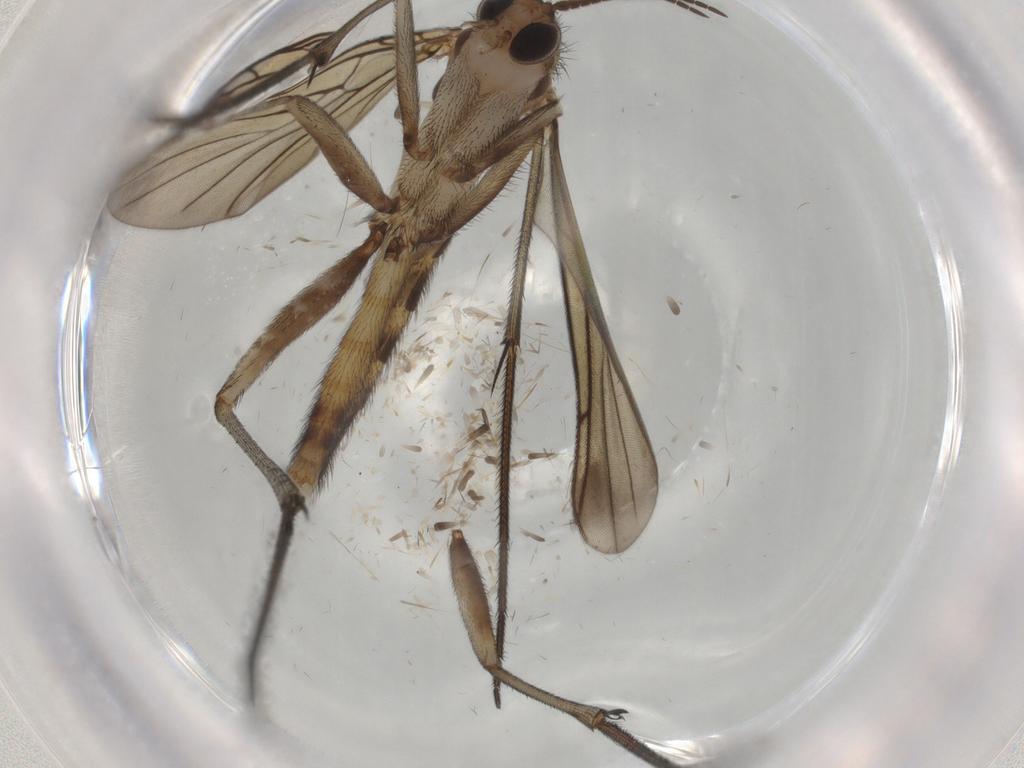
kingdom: Animalia
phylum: Arthropoda
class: Insecta
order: Diptera
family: Sciaridae
